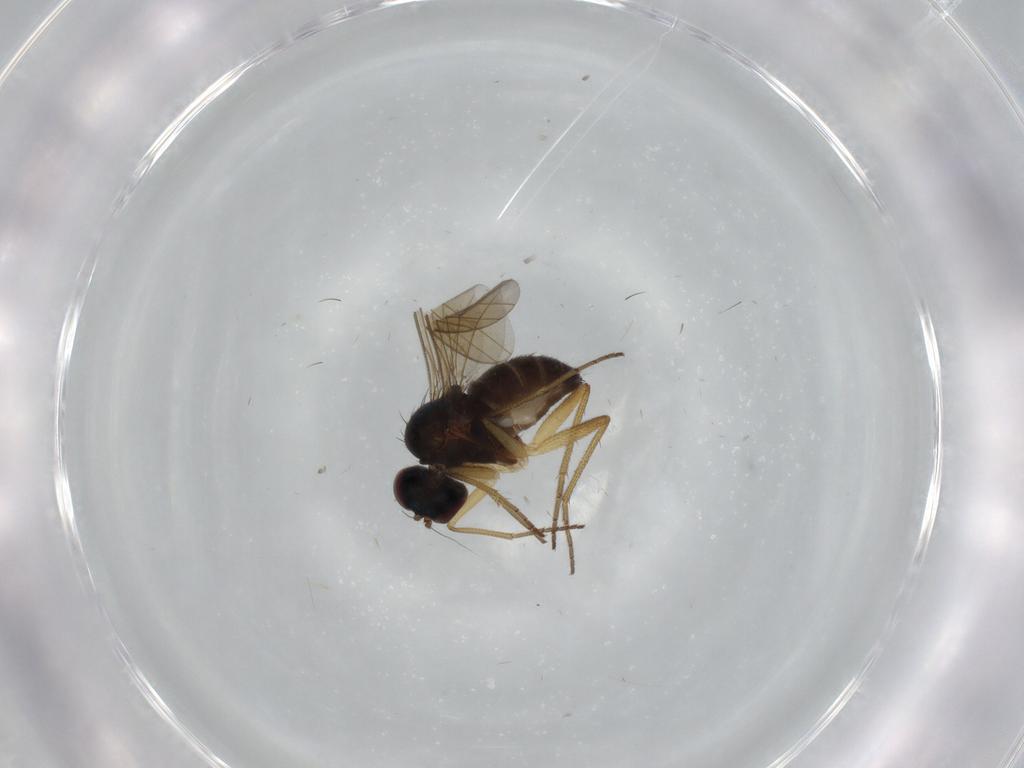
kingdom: Animalia
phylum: Arthropoda
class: Insecta
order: Diptera
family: Dolichopodidae
